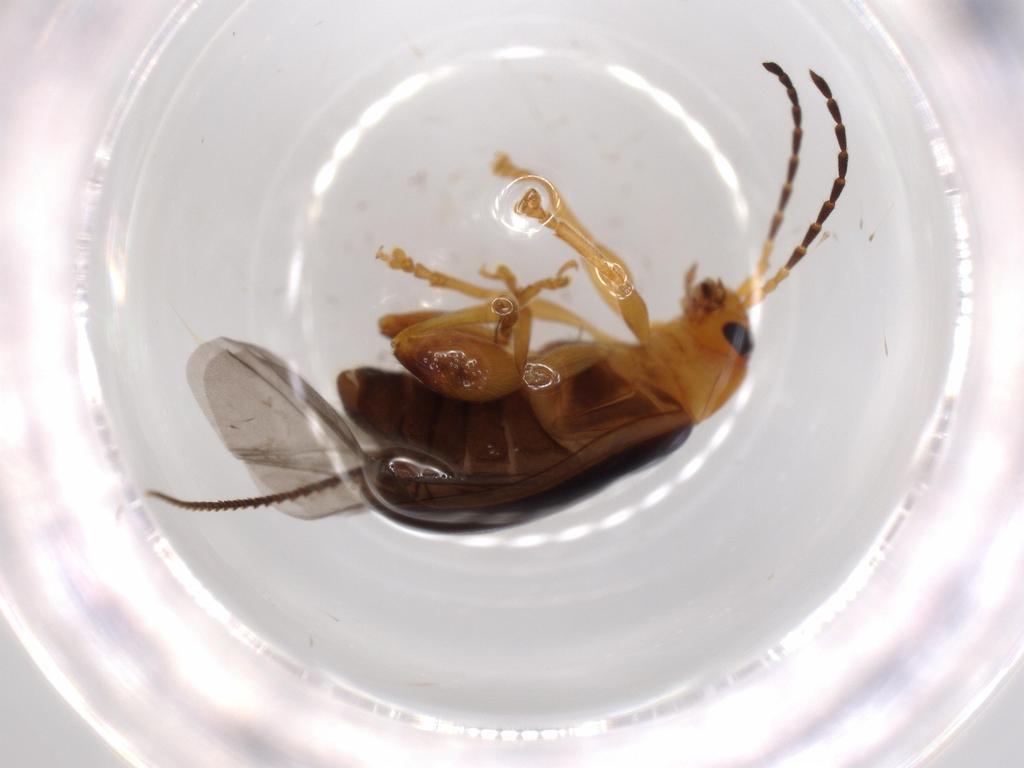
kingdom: Animalia
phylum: Arthropoda
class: Insecta
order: Coleoptera
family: Chrysomelidae
